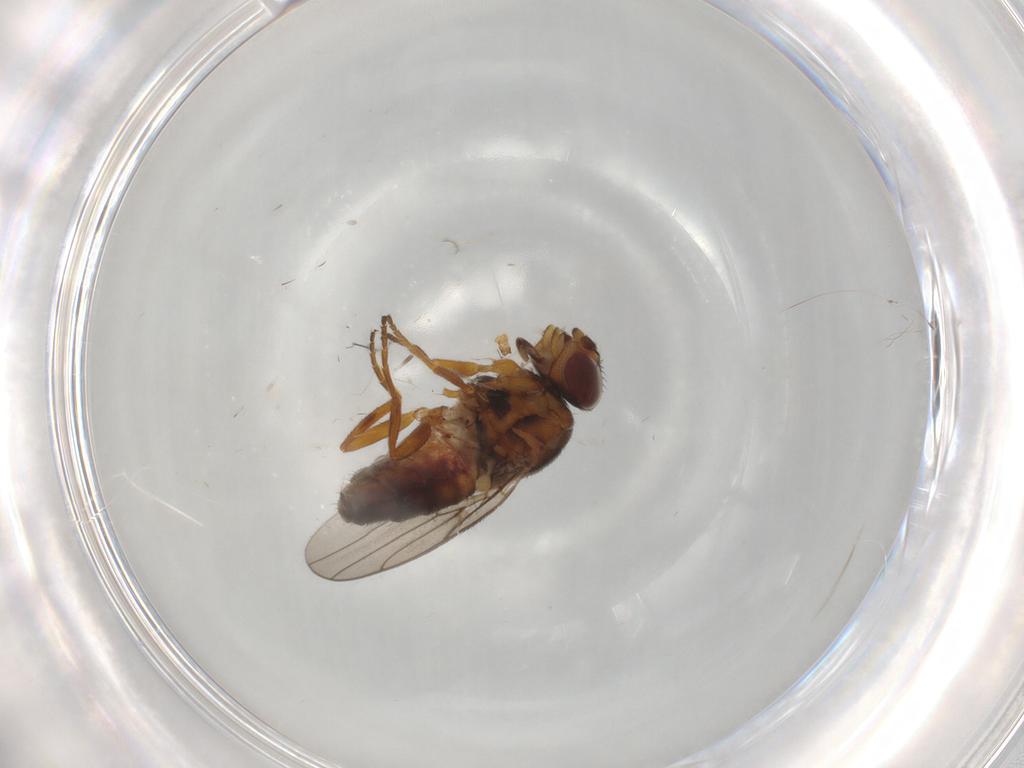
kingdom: Animalia
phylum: Arthropoda
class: Insecta
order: Diptera
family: Chloropidae
